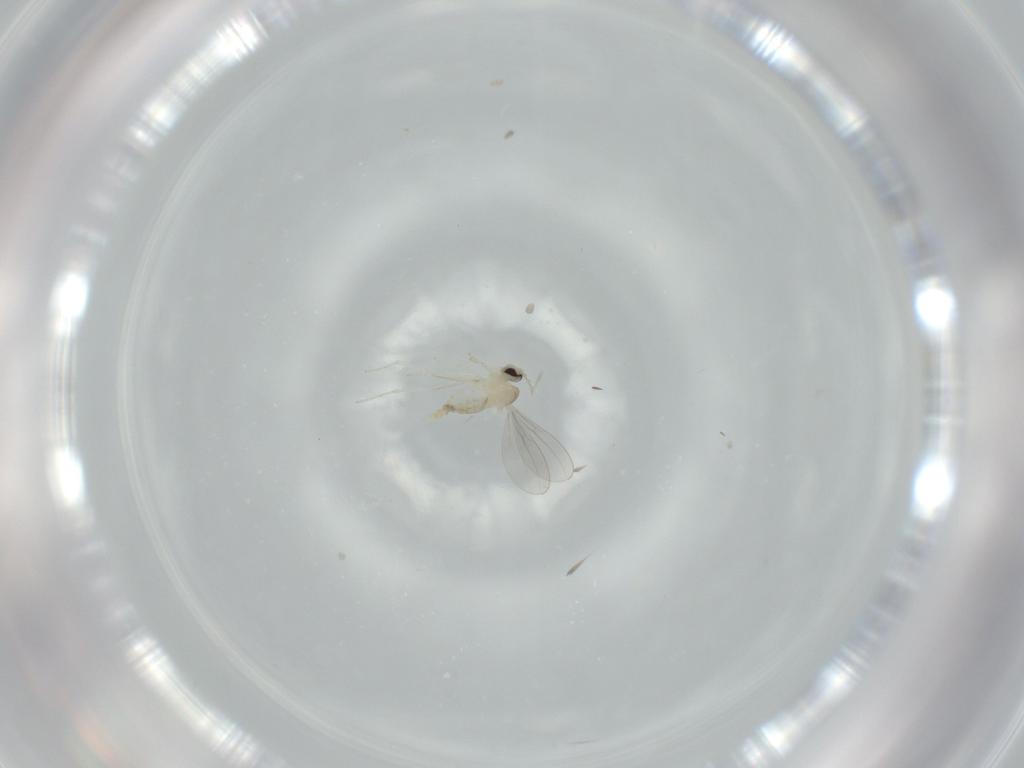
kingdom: Animalia
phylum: Arthropoda
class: Insecta
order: Diptera
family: Cecidomyiidae
